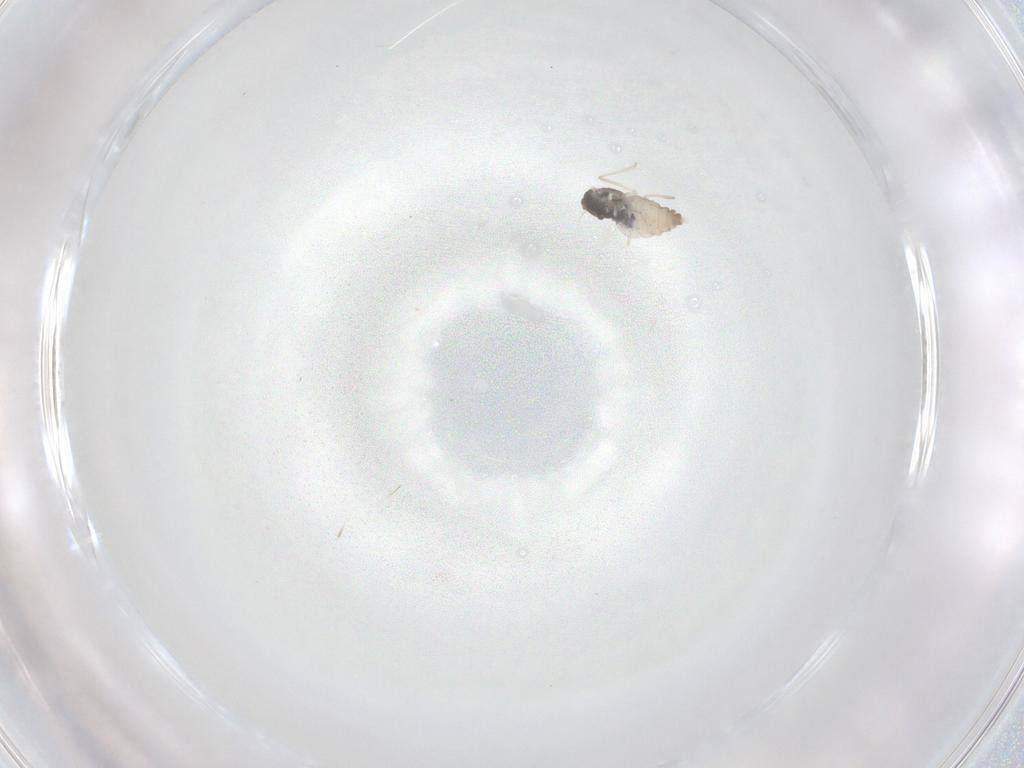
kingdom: Animalia
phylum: Arthropoda
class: Insecta
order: Diptera
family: Cecidomyiidae
